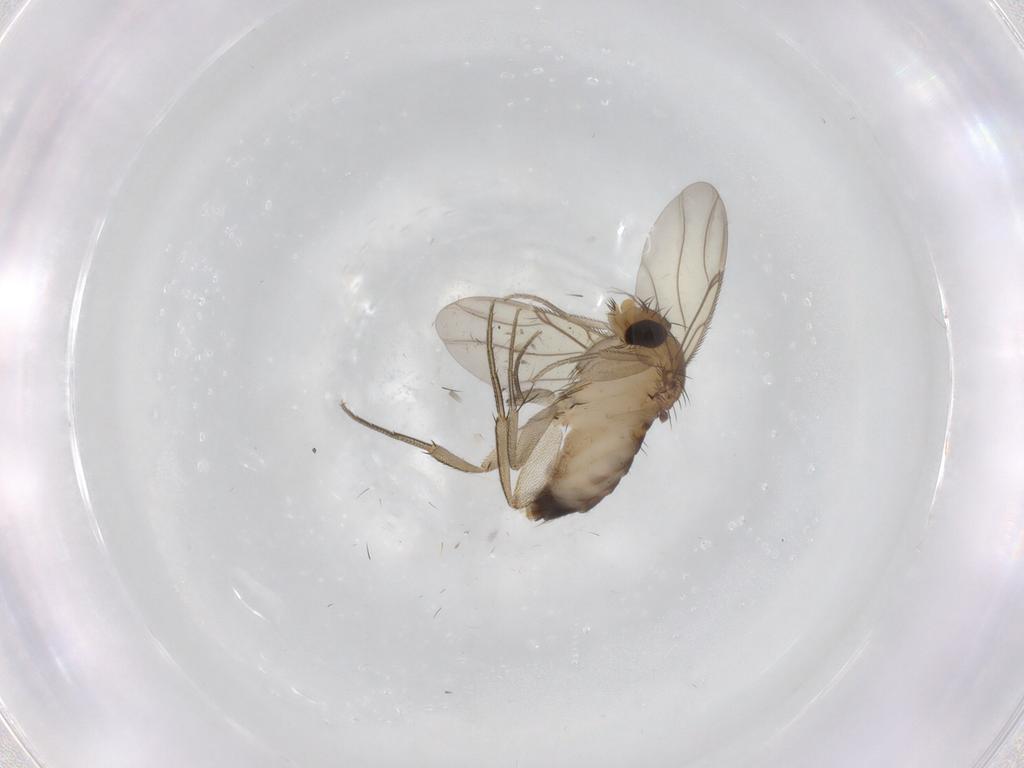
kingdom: Animalia
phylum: Arthropoda
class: Insecta
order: Diptera
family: Phoridae
